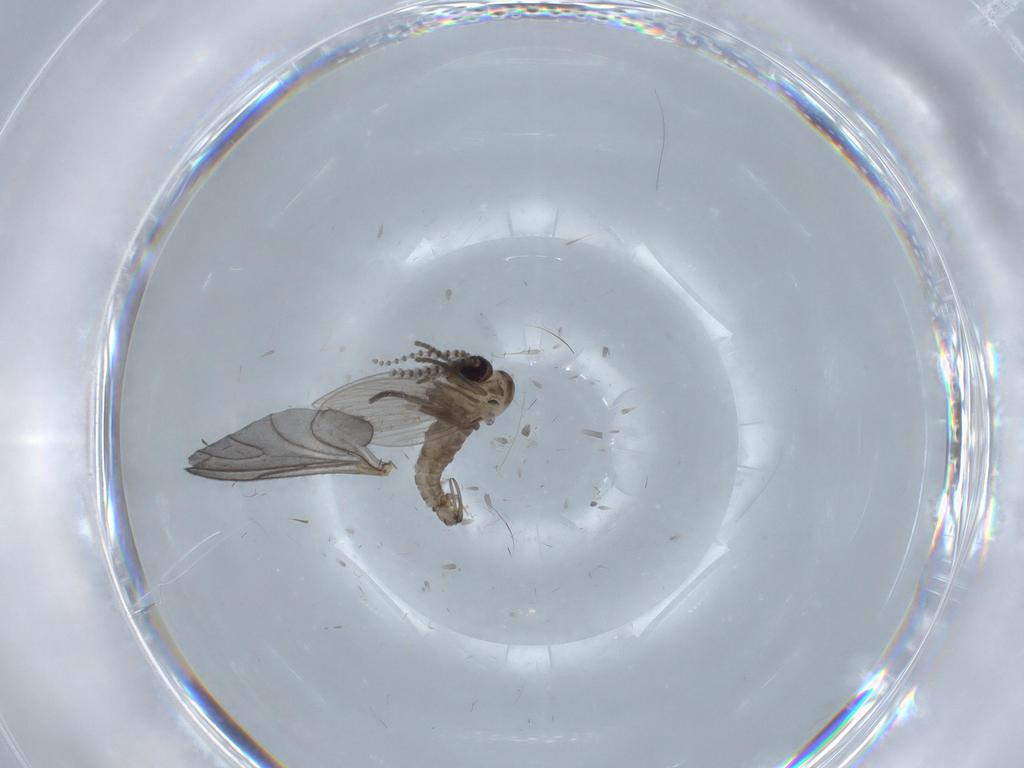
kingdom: Animalia
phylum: Arthropoda
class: Insecta
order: Diptera
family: Psychodidae
